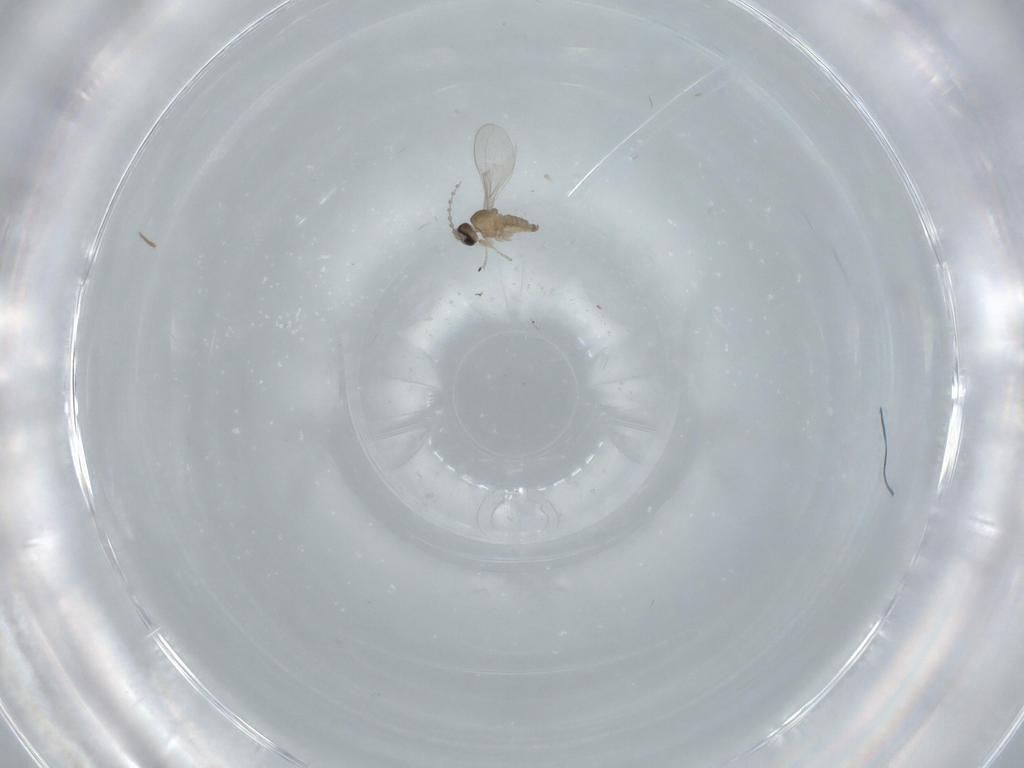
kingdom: Animalia
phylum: Arthropoda
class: Insecta
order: Diptera
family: Cecidomyiidae
